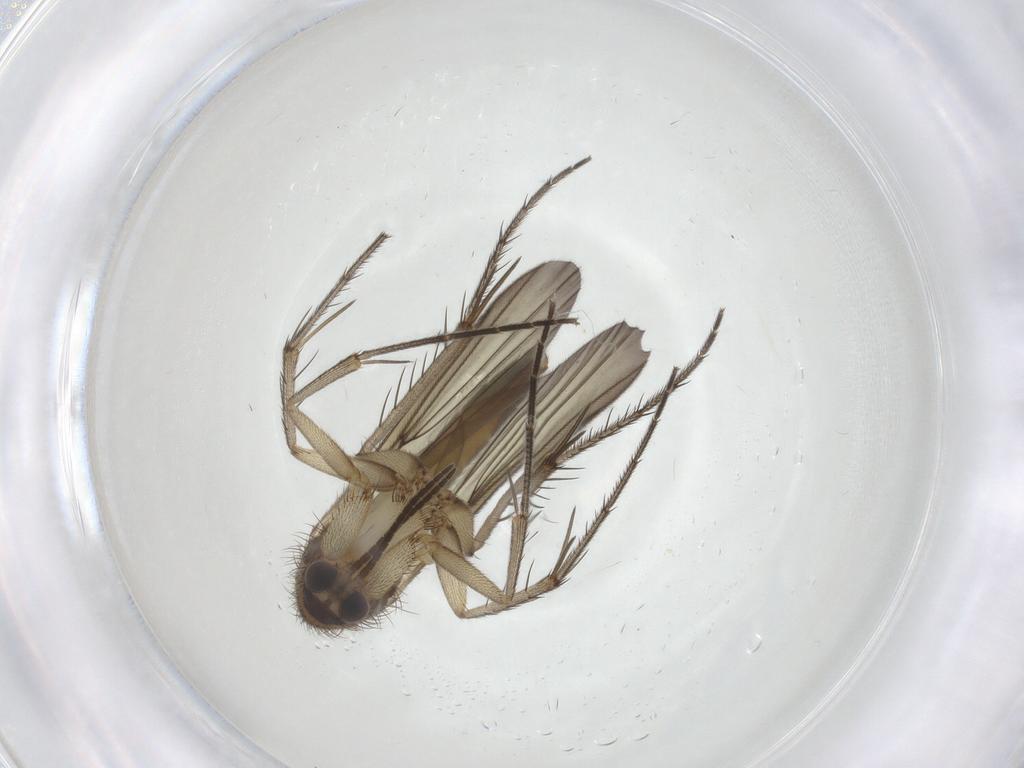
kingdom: Animalia
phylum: Arthropoda
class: Insecta
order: Diptera
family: Mycetophilidae
